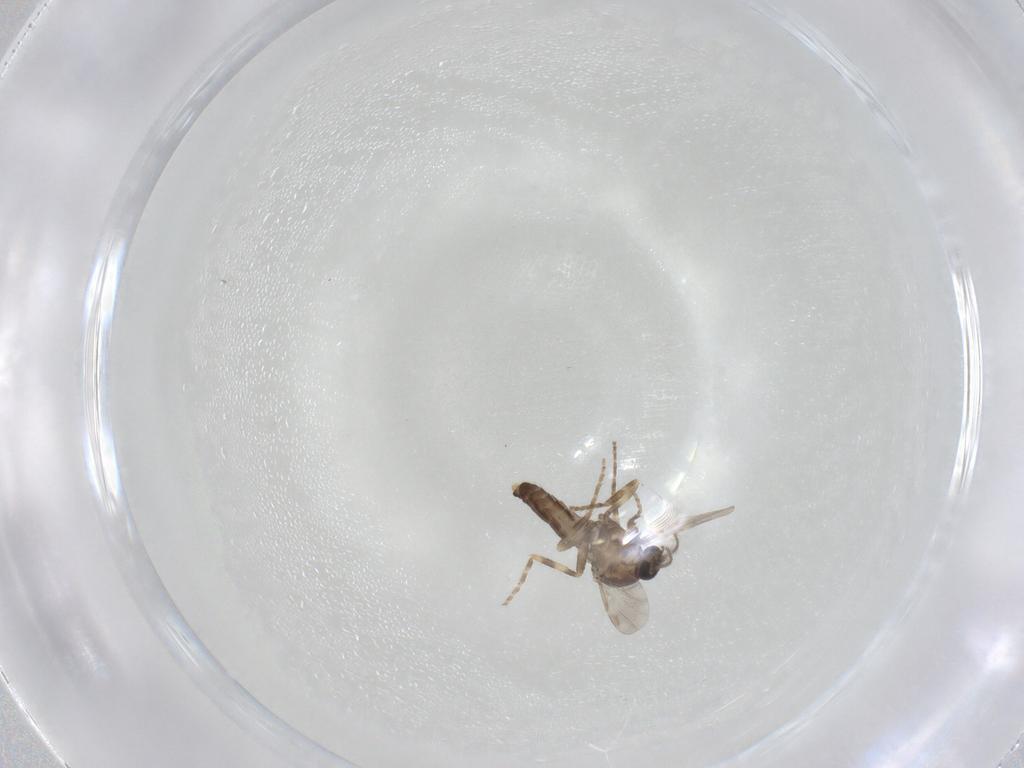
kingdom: Animalia
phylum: Arthropoda
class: Insecta
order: Diptera
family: Ceratopogonidae
